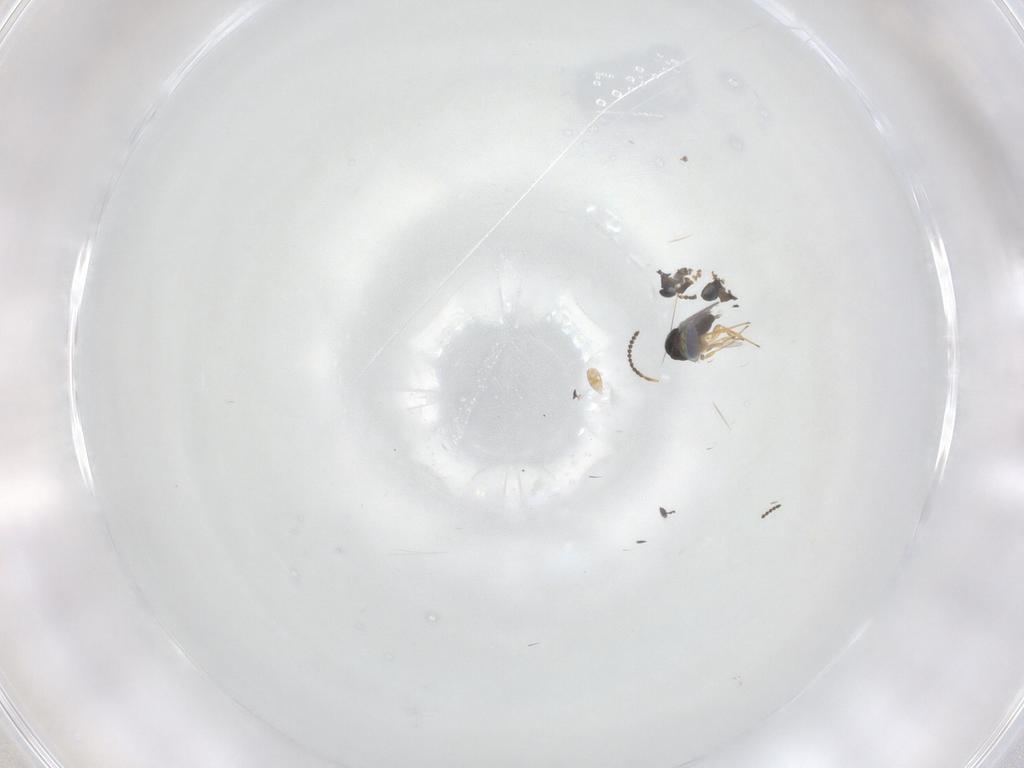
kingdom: Animalia
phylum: Arthropoda
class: Insecta
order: Hymenoptera
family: Scelionidae
